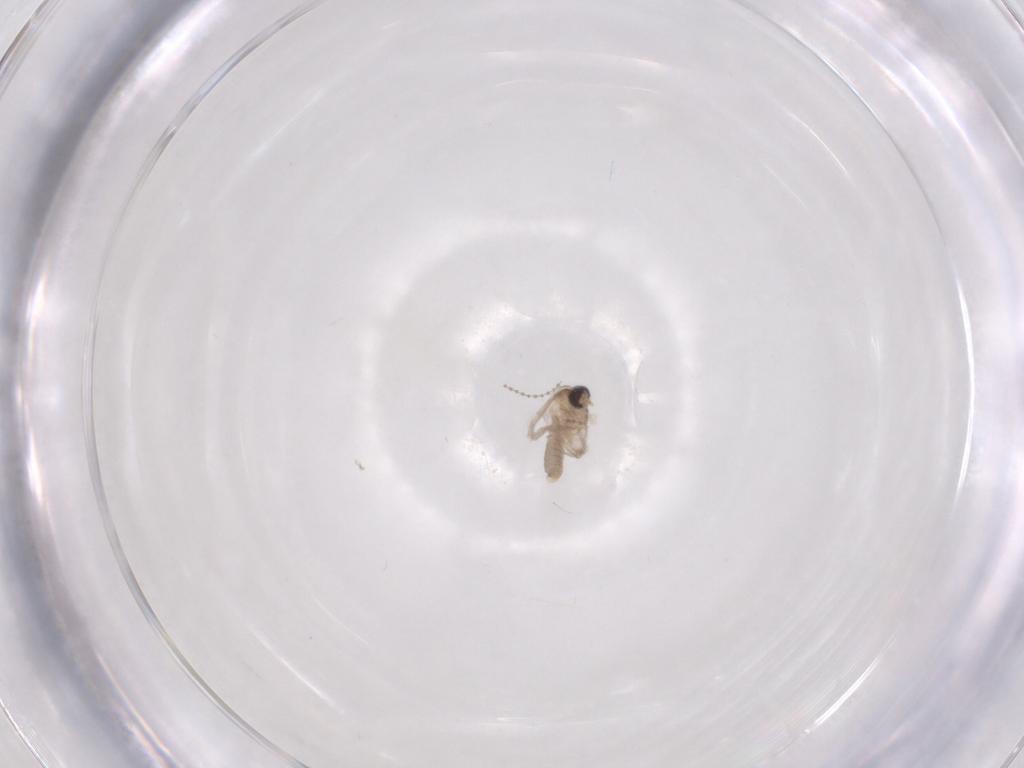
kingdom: Animalia
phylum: Arthropoda
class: Insecta
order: Diptera
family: Cecidomyiidae
